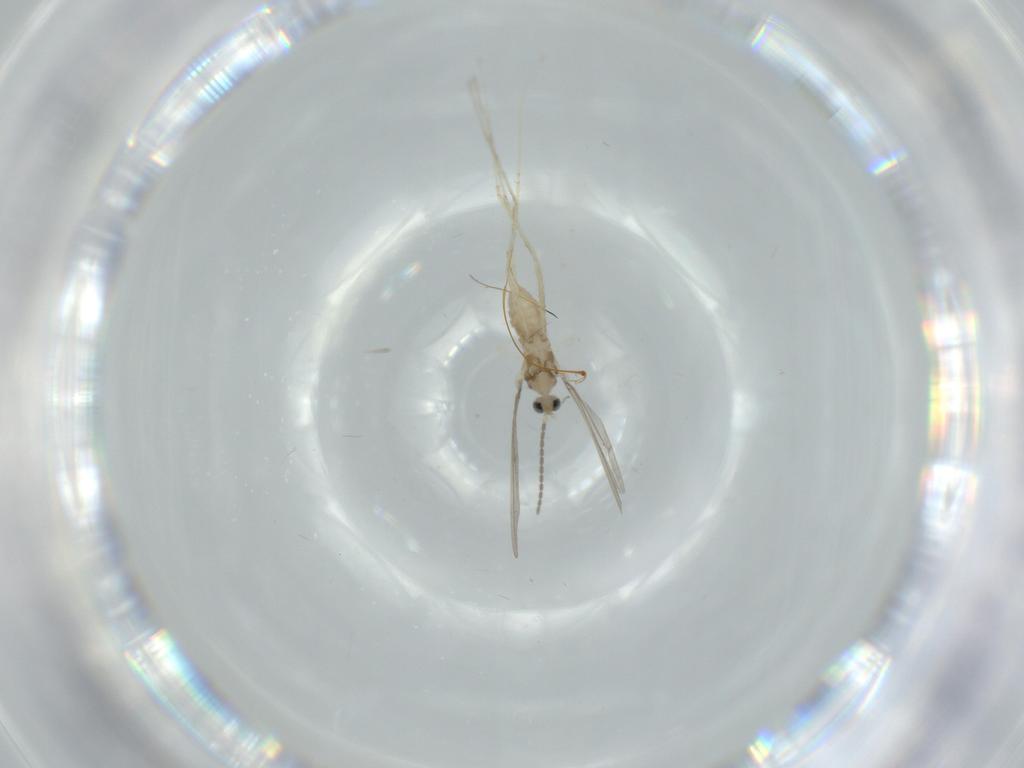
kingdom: Animalia
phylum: Arthropoda
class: Insecta
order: Diptera
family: Cecidomyiidae
